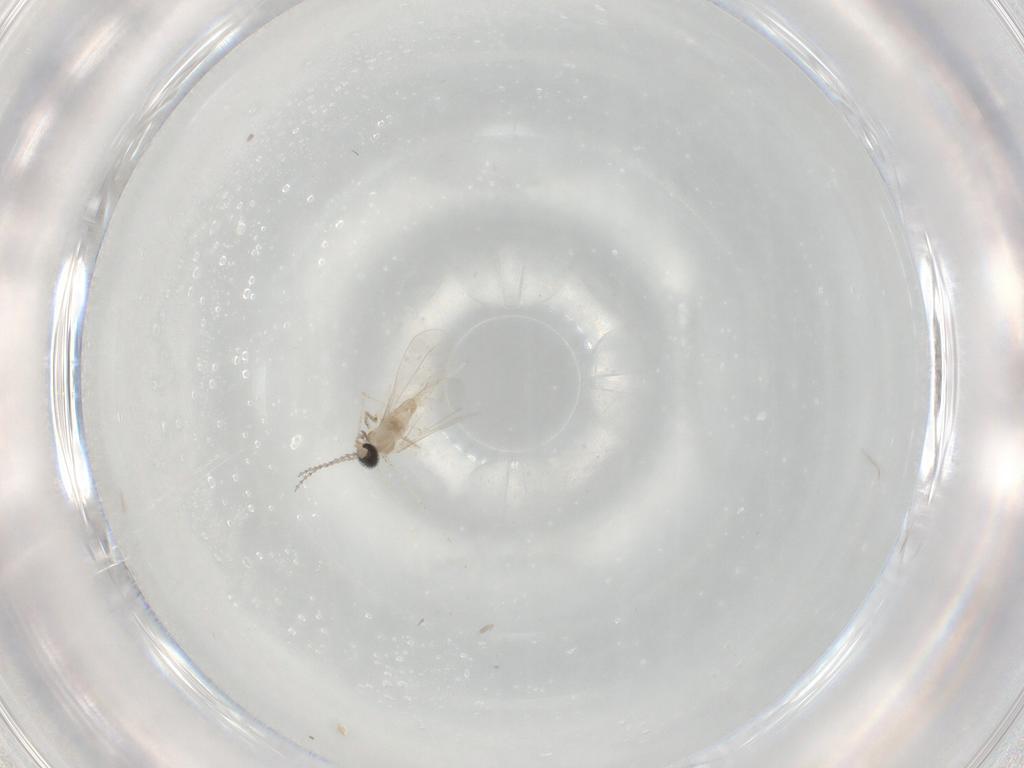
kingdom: Animalia
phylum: Arthropoda
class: Insecta
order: Diptera
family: Cecidomyiidae
